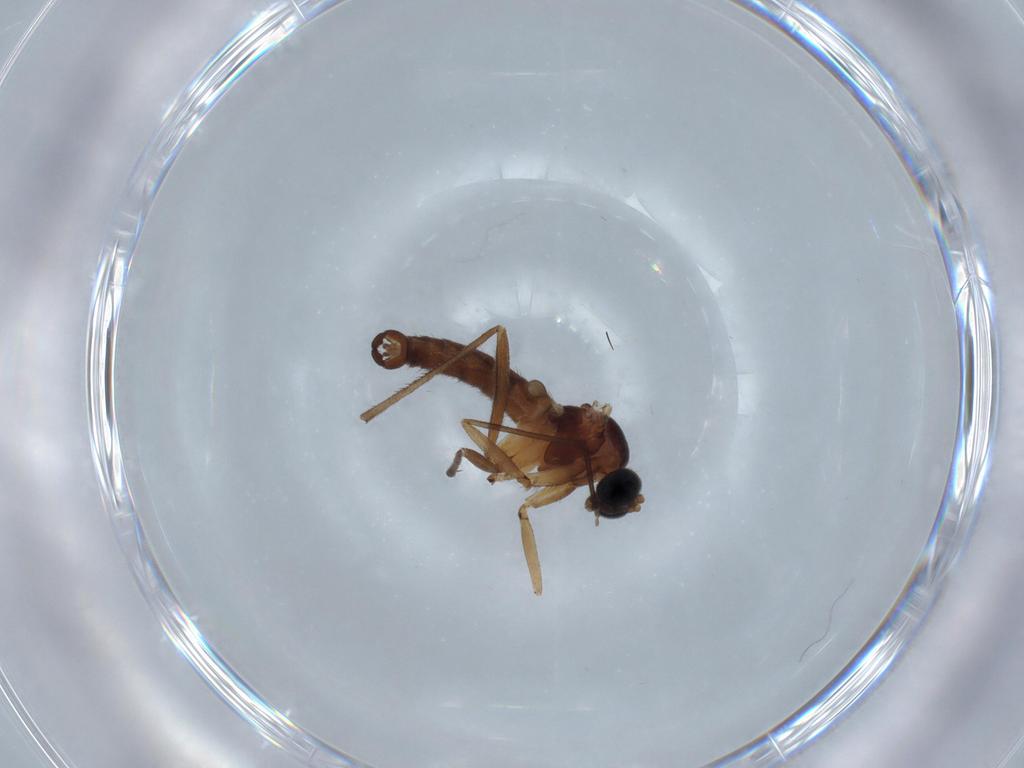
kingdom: Animalia
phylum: Arthropoda
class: Insecta
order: Diptera
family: Sciaridae
